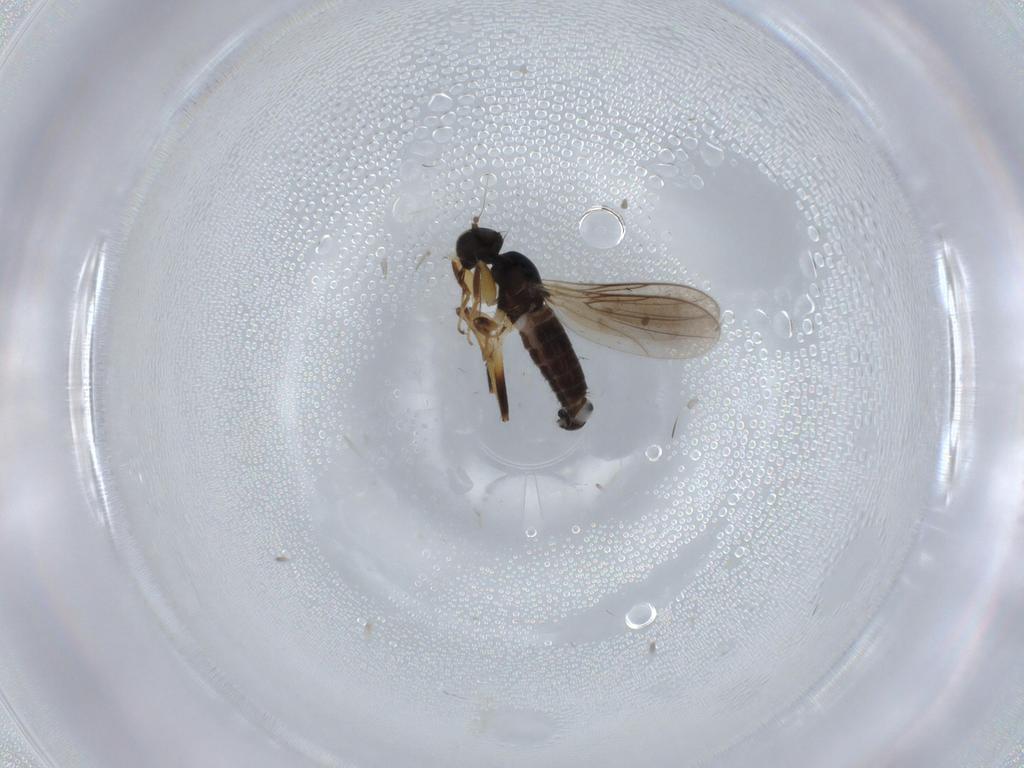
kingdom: Animalia
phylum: Arthropoda
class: Insecta
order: Diptera
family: Hybotidae
